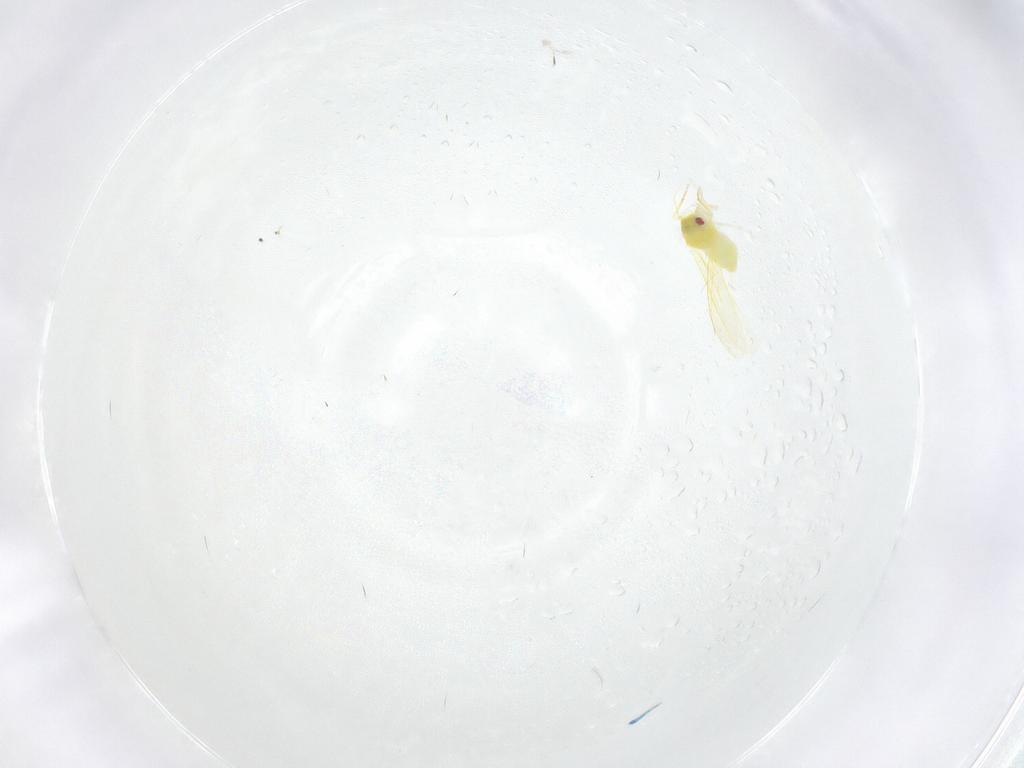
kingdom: Animalia
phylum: Arthropoda
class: Insecta
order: Hemiptera
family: Aleyrodidae
